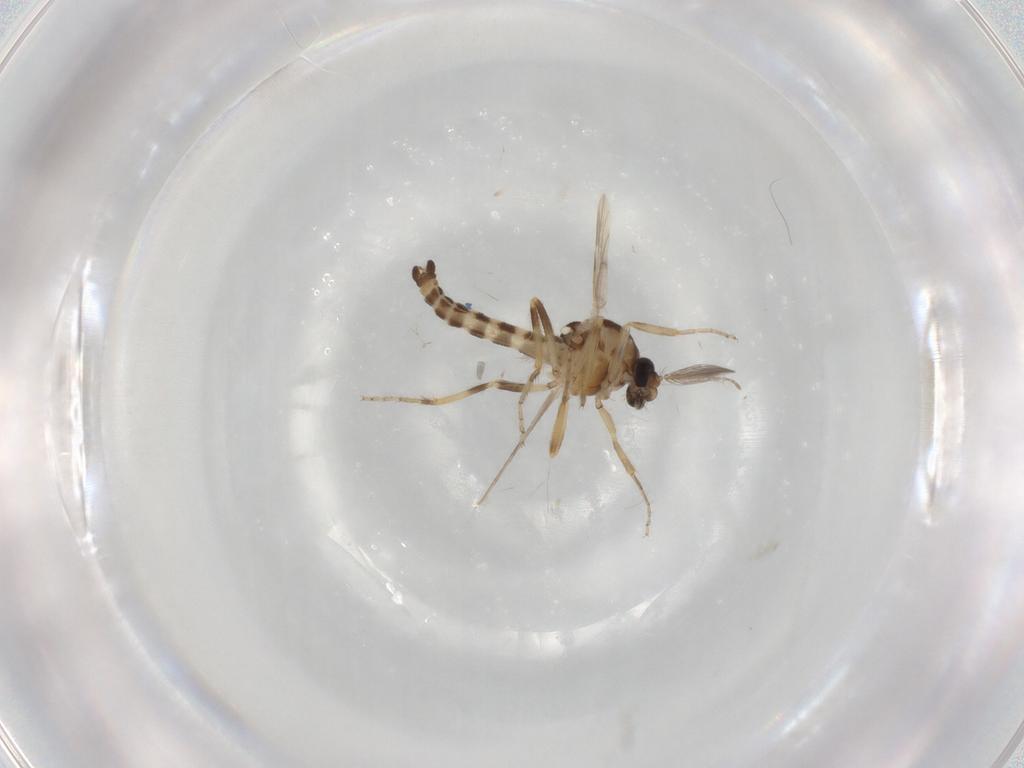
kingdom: Animalia
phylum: Arthropoda
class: Insecta
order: Diptera
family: Ceratopogonidae
